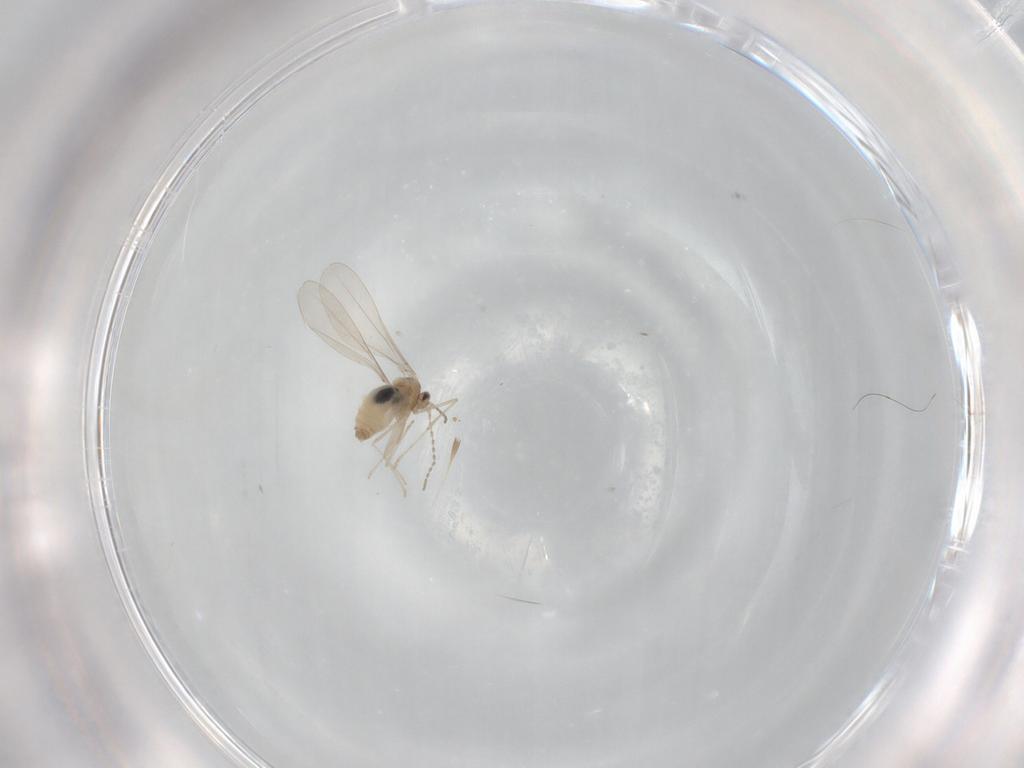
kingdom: Animalia
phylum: Arthropoda
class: Insecta
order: Diptera
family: Cecidomyiidae
